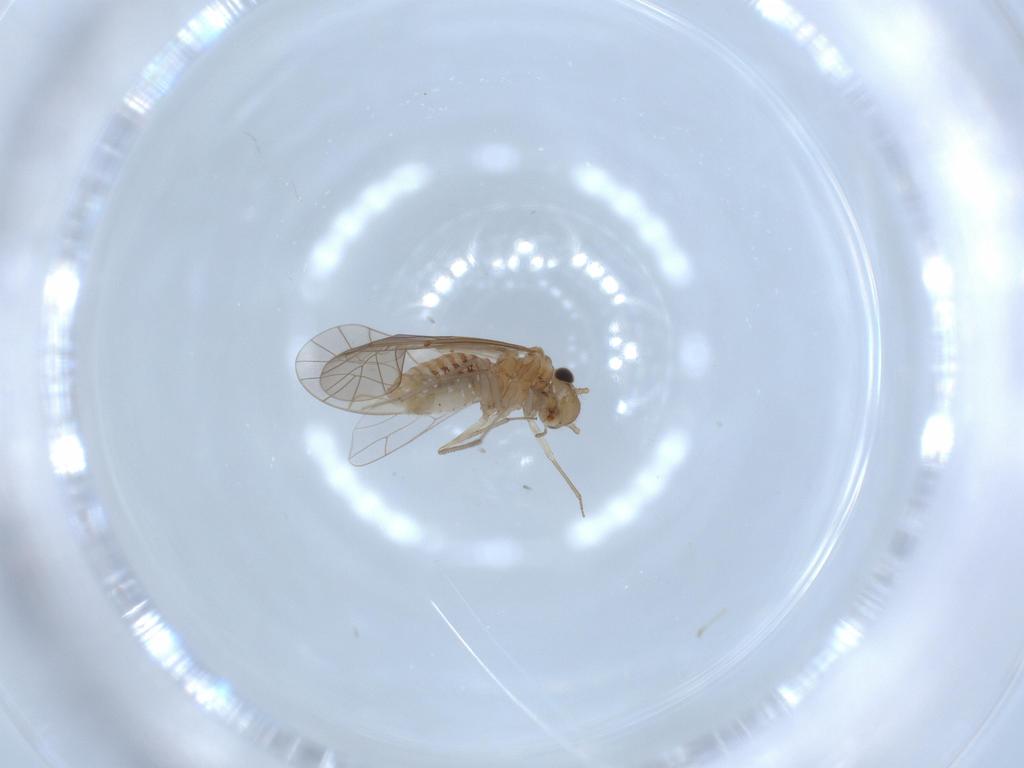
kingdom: Animalia
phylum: Arthropoda
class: Insecta
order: Psocodea
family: Lachesillidae
